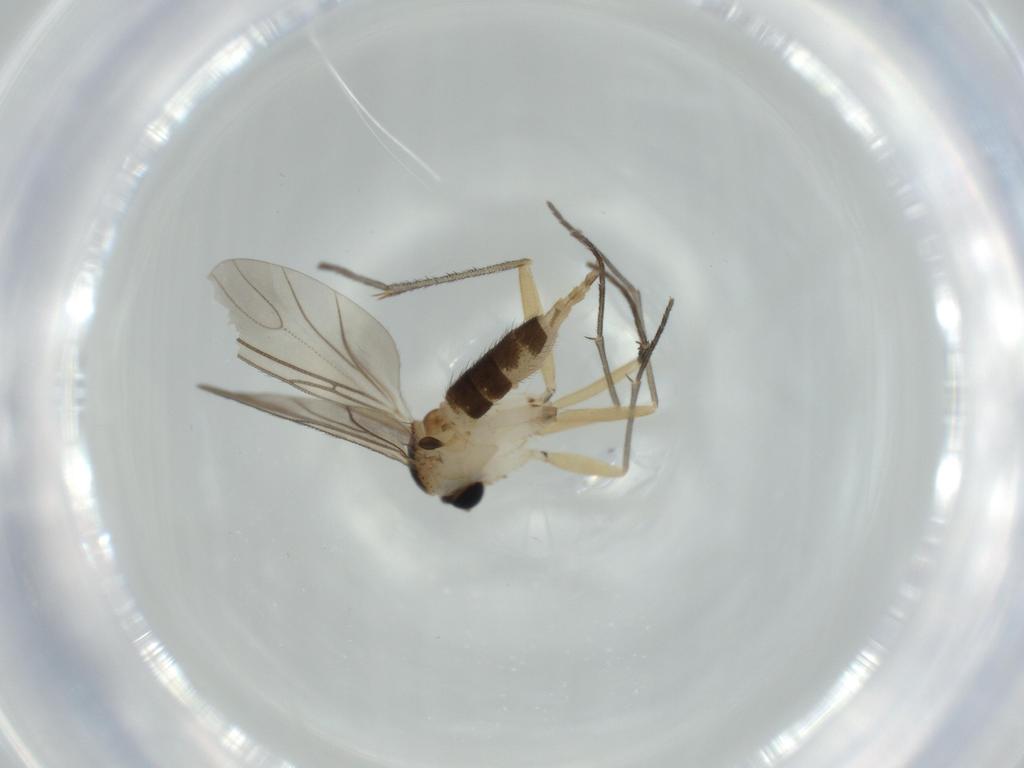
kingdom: Animalia
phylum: Arthropoda
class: Insecta
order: Diptera
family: Sciaridae
